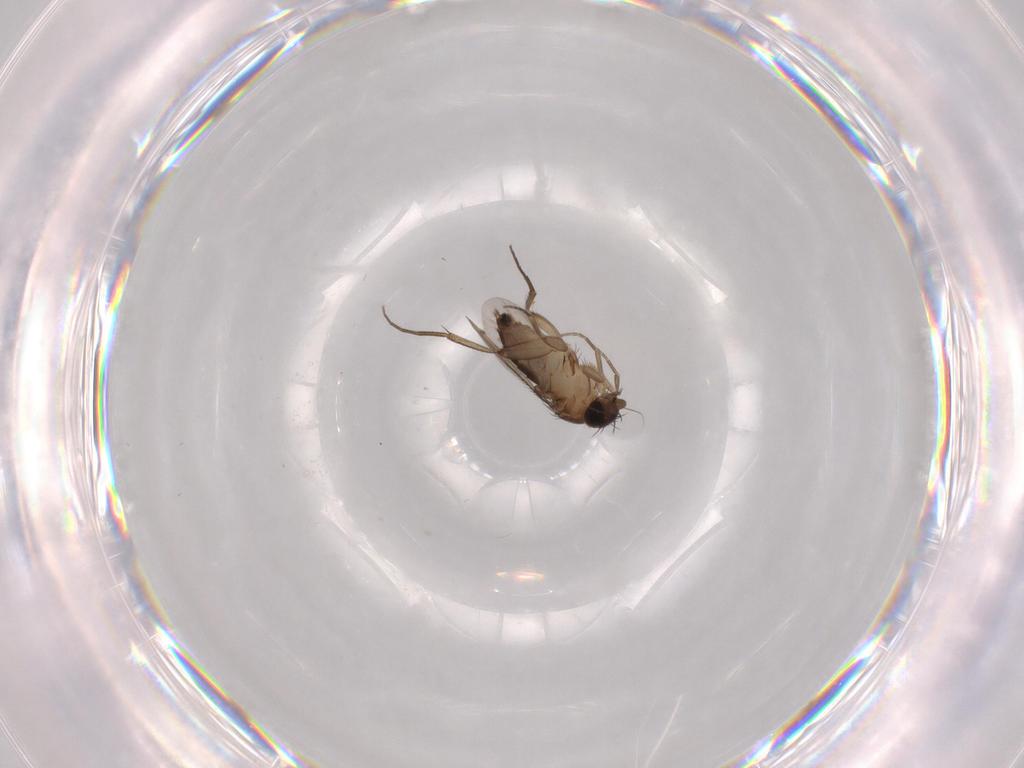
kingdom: Animalia
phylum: Arthropoda
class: Insecta
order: Diptera
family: Phoridae
